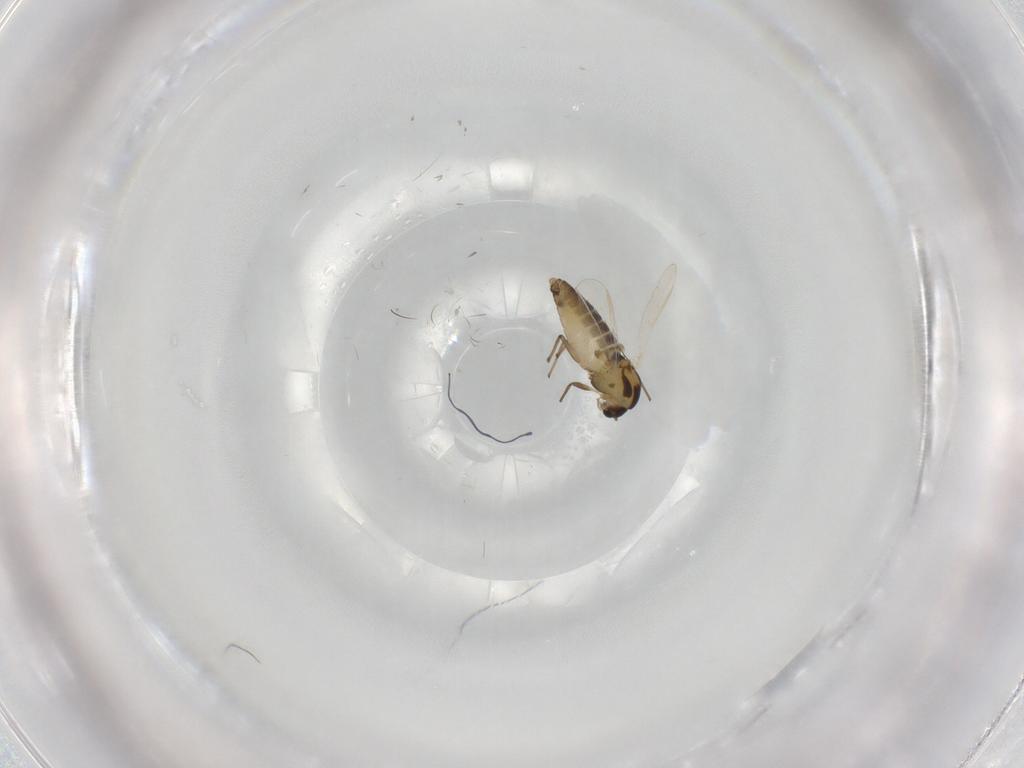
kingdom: Animalia
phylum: Arthropoda
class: Insecta
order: Diptera
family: Chironomidae
